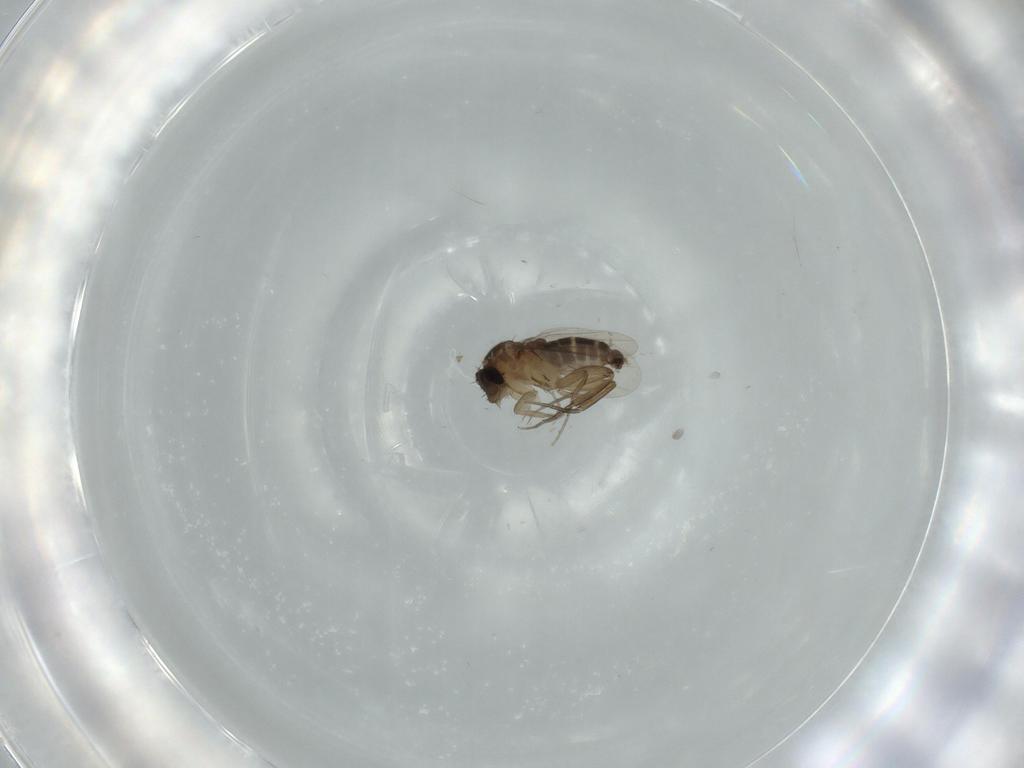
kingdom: Animalia
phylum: Arthropoda
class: Insecta
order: Diptera
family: Phoridae
